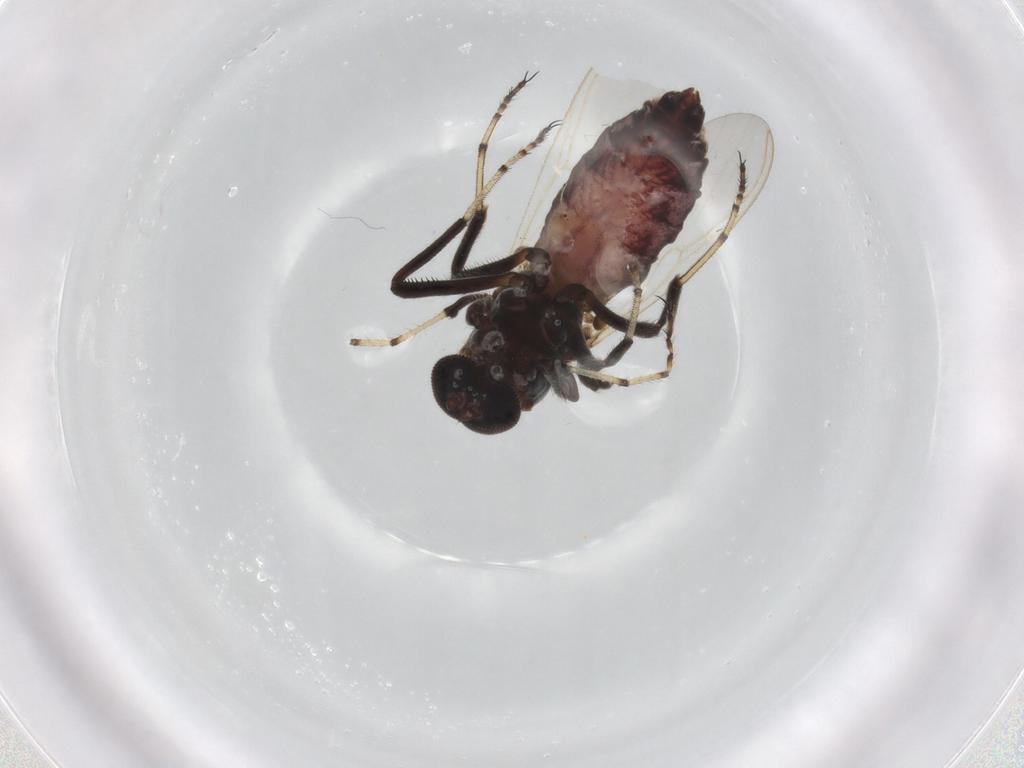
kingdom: Animalia
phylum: Arthropoda
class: Insecta
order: Diptera
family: Ceratopogonidae
